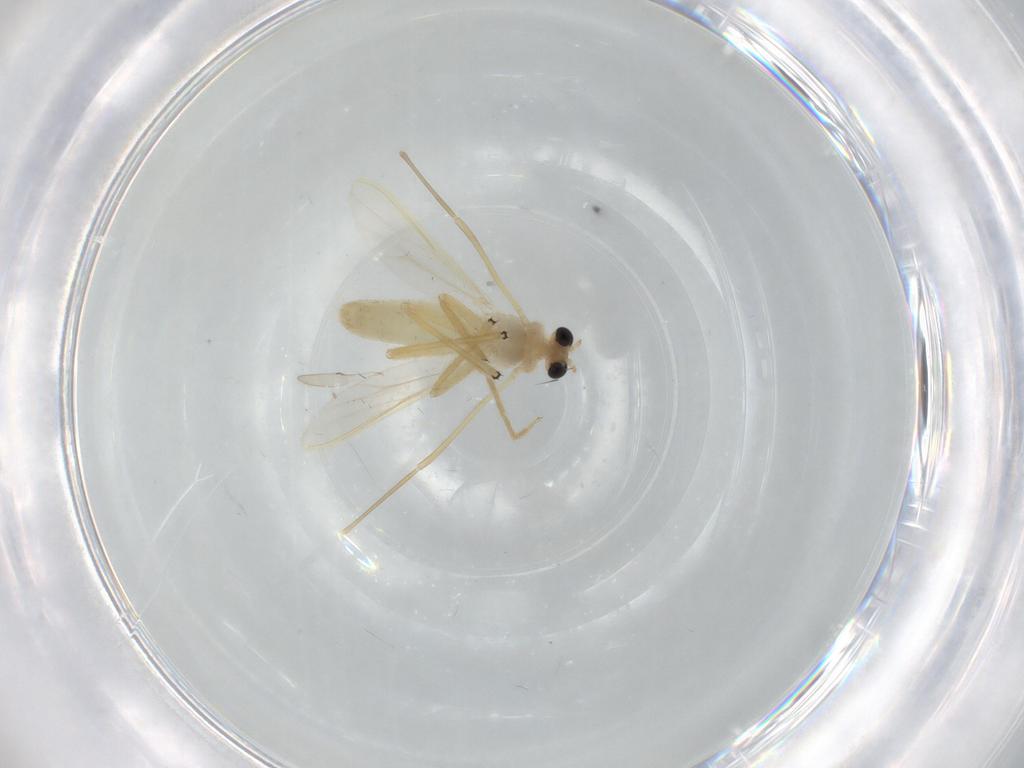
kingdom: Animalia
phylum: Arthropoda
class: Insecta
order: Diptera
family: Chironomidae
